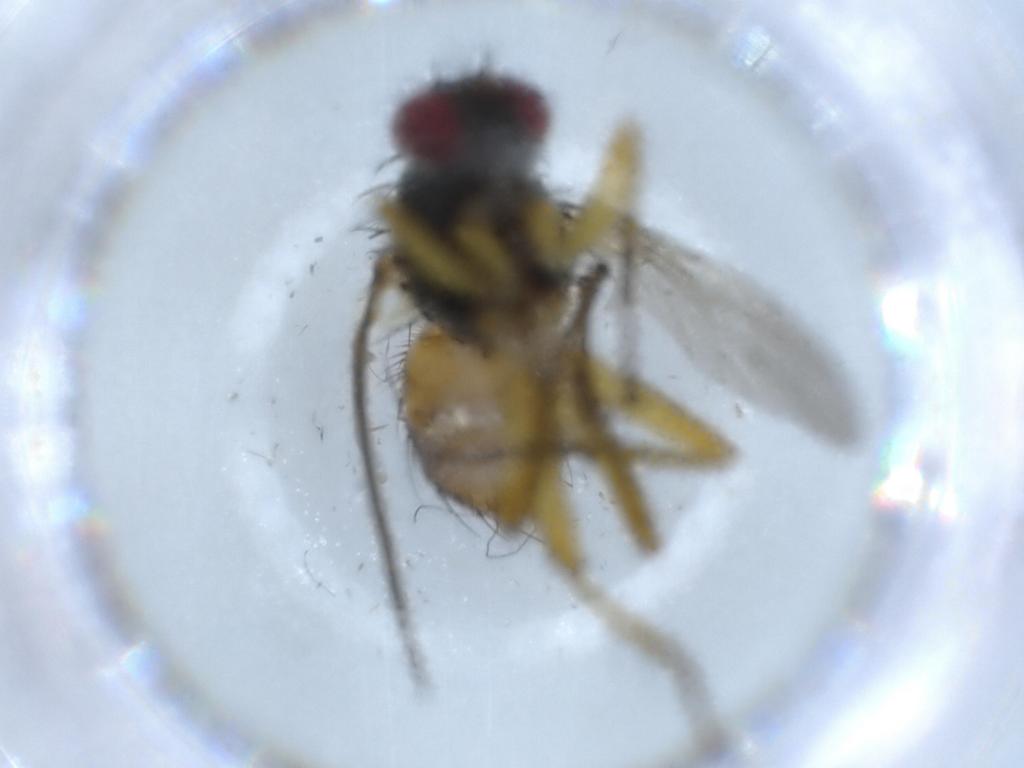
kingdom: Animalia
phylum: Arthropoda
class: Insecta
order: Diptera
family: Muscidae
